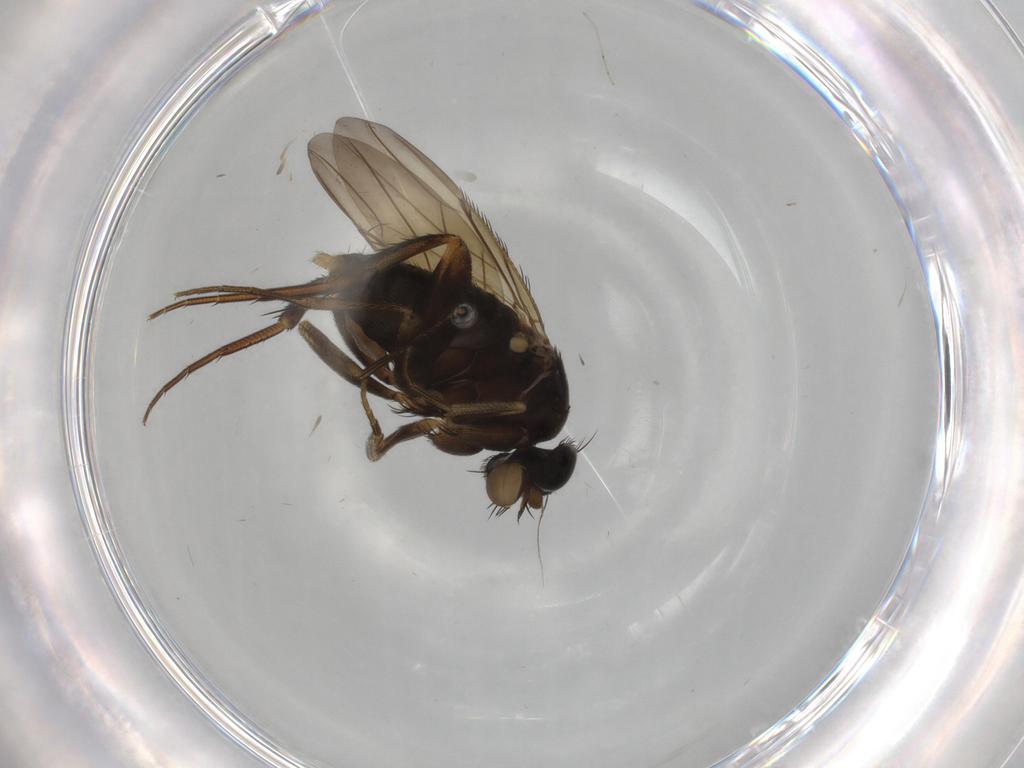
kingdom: Animalia
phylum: Arthropoda
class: Insecta
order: Diptera
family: Phoridae
